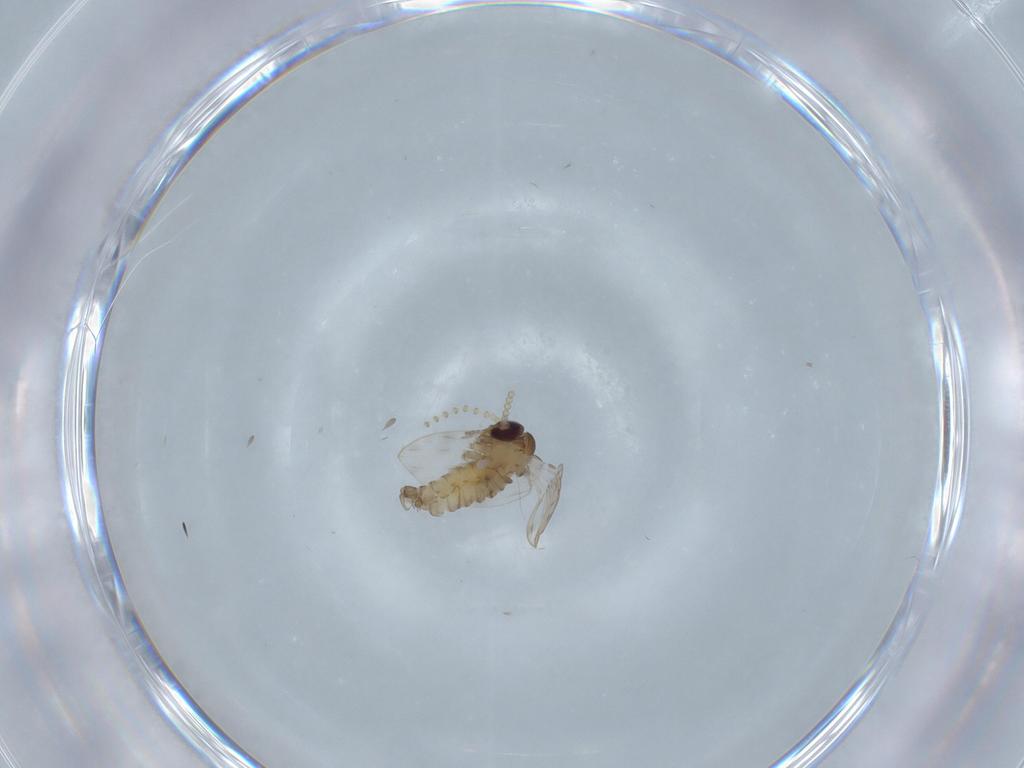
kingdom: Animalia
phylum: Arthropoda
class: Insecta
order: Diptera
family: Psychodidae
